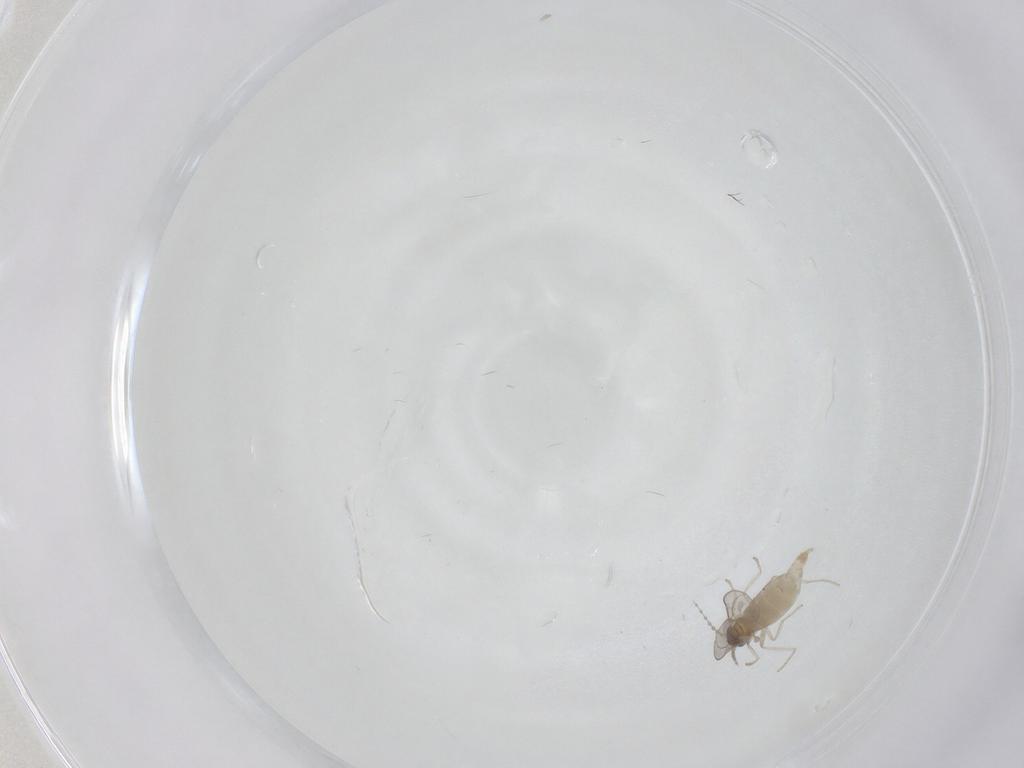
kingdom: Animalia
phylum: Arthropoda
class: Insecta
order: Diptera
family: Cecidomyiidae
